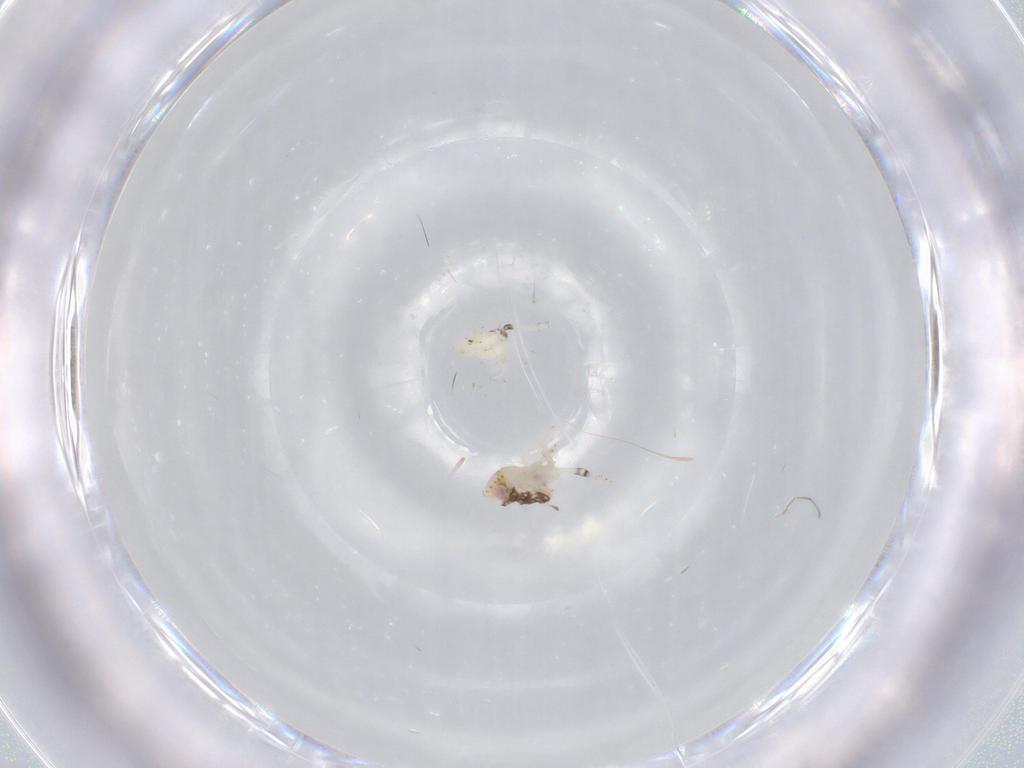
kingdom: Animalia
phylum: Arthropoda
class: Insecta
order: Hemiptera
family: Nogodinidae
